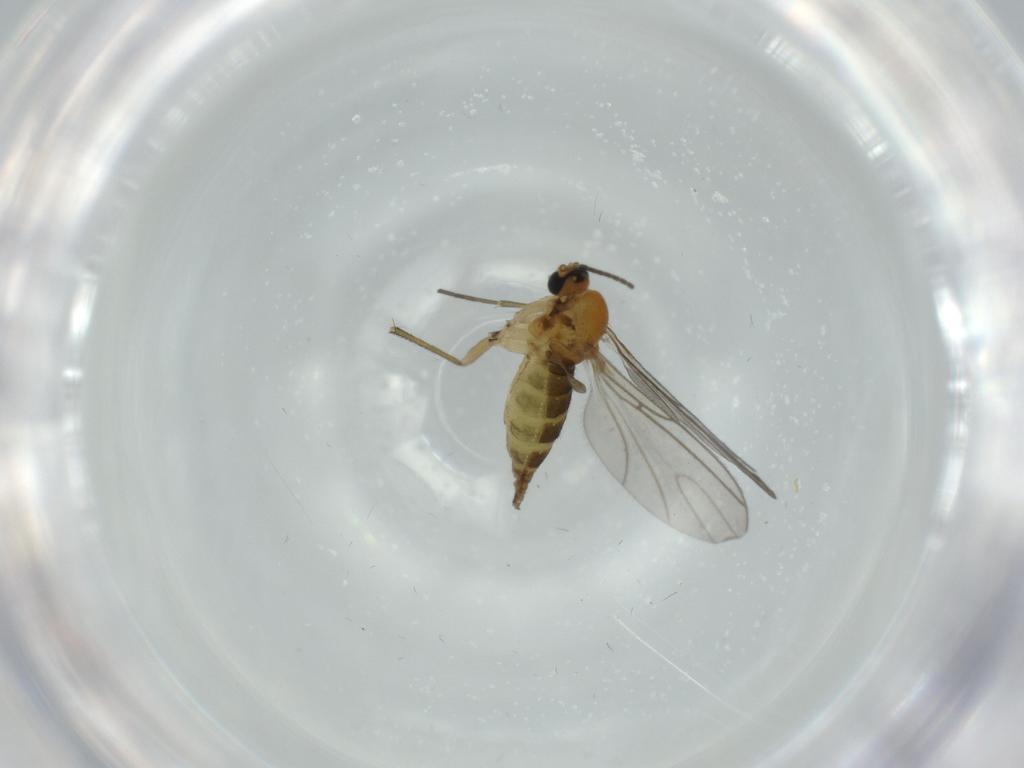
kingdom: Animalia
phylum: Arthropoda
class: Insecta
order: Diptera
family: Sciaridae
